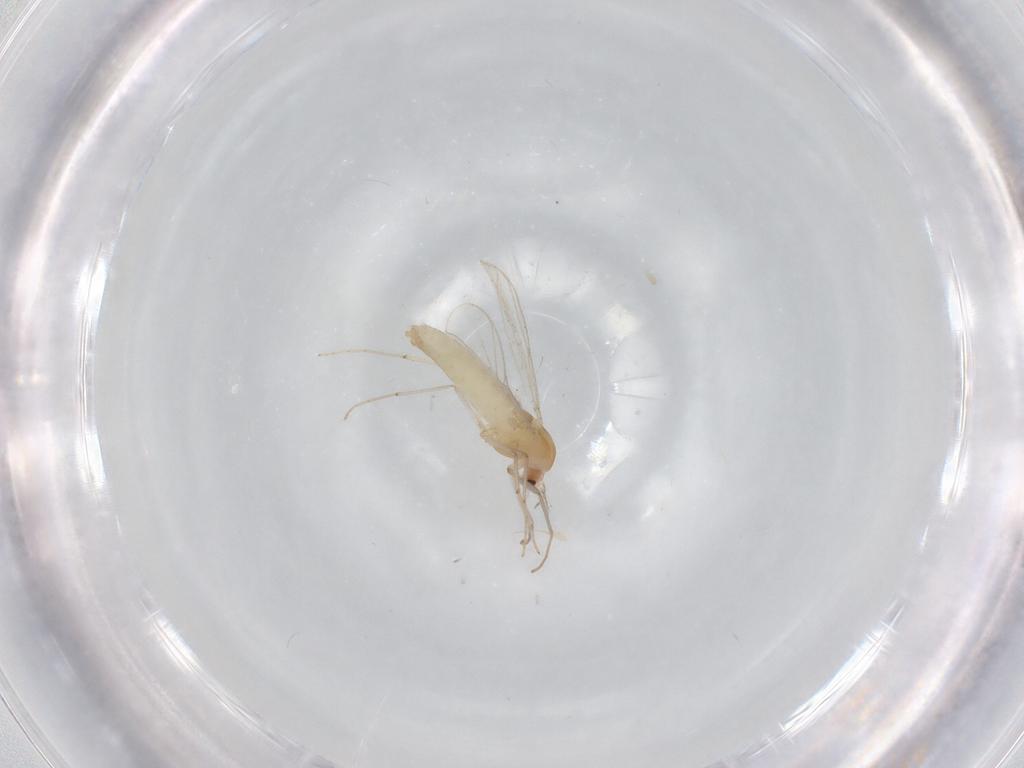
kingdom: Animalia
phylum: Arthropoda
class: Insecta
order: Diptera
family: Chironomidae
